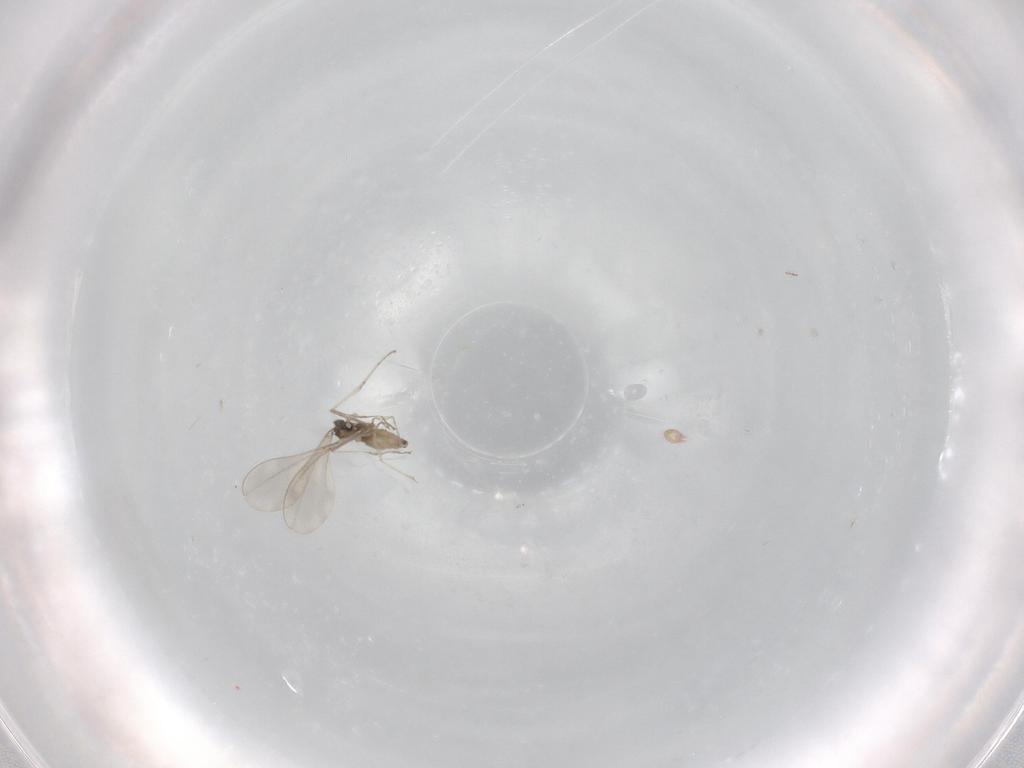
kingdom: Animalia
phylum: Arthropoda
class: Insecta
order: Diptera
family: Cecidomyiidae
